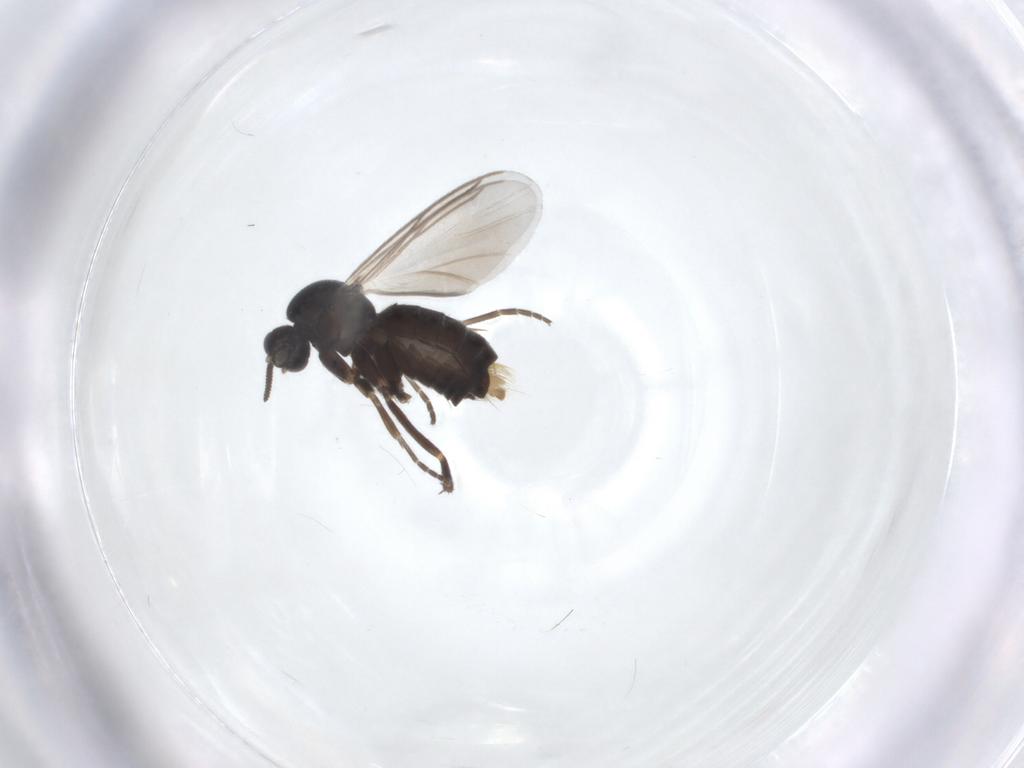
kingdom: Animalia
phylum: Arthropoda
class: Insecta
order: Diptera
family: Mycetophilidae
